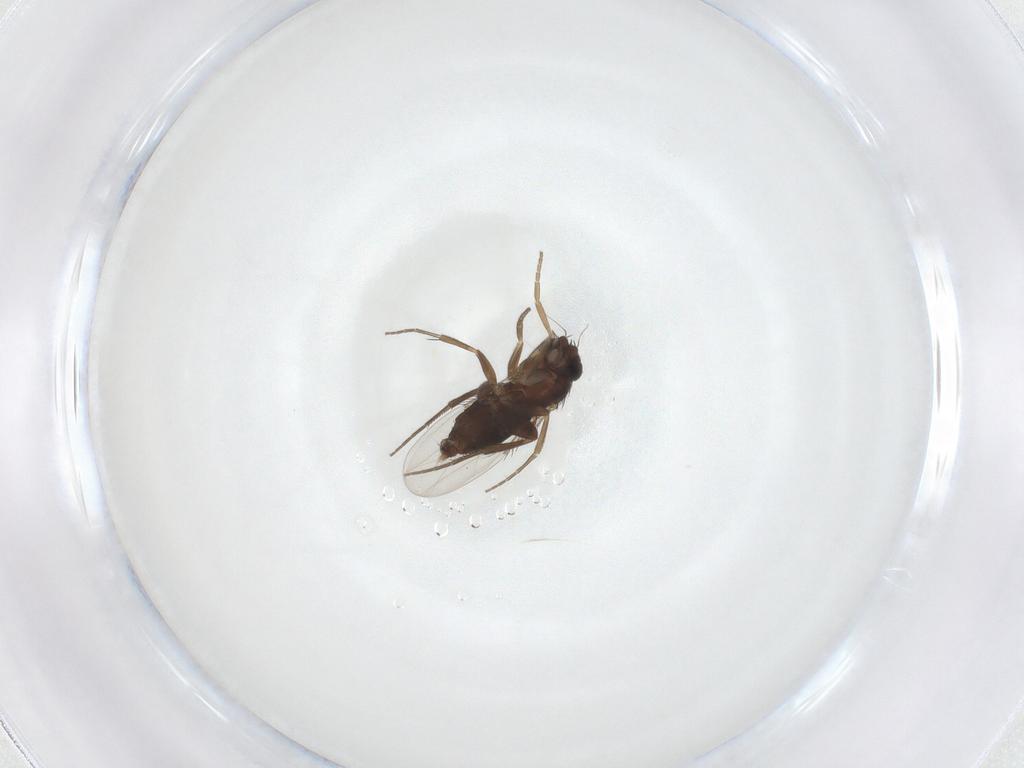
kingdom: Animalia
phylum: Arthropoda
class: Insecta
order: Diptera
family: Phoridae
